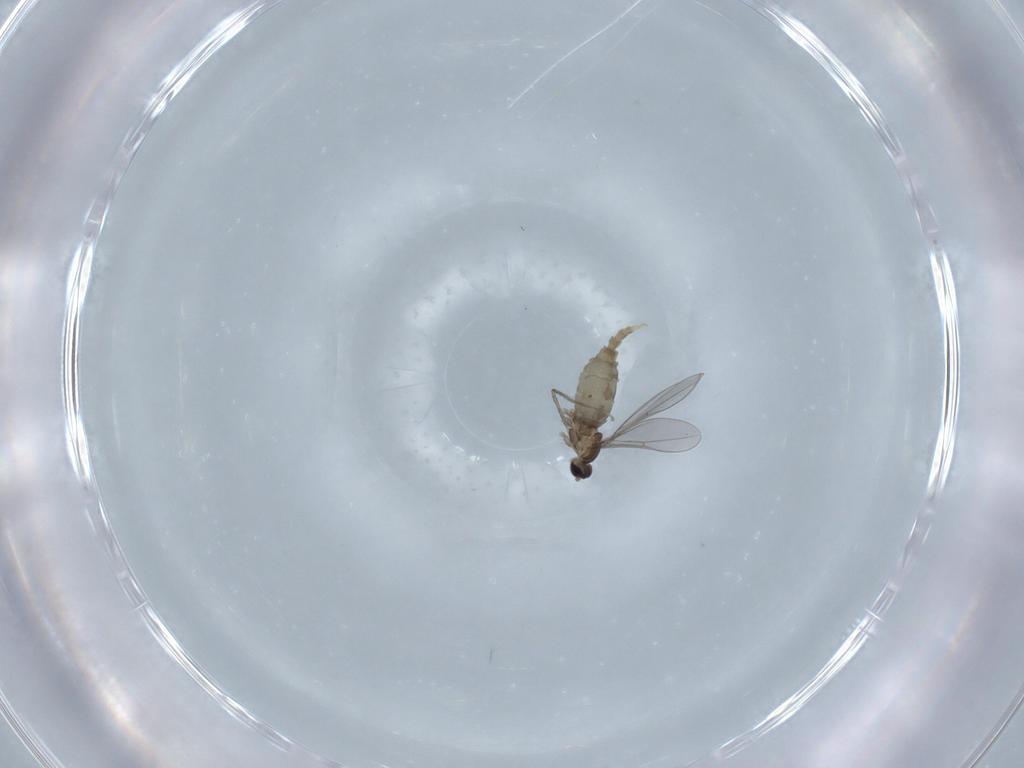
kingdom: Animalia
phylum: Arthropoda
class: Insecta
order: Diptera
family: Cecidomyiidae
